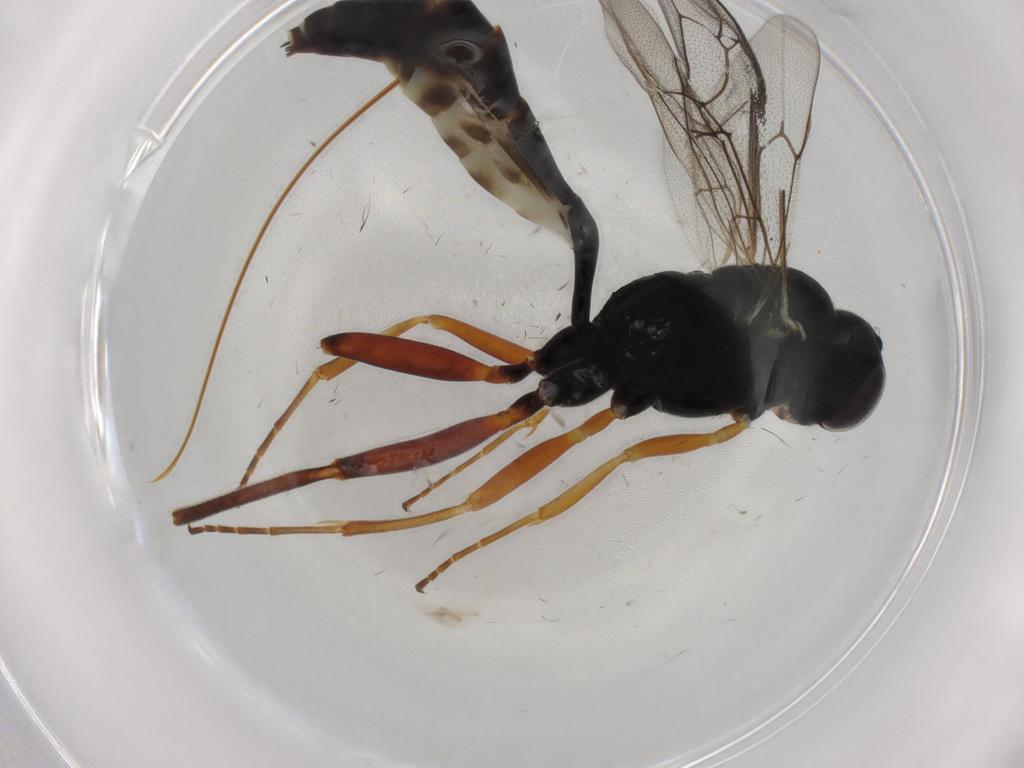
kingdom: Animalia
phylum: Arthropoda
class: Insecta
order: Hymenoptera
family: Ichneumonidae
